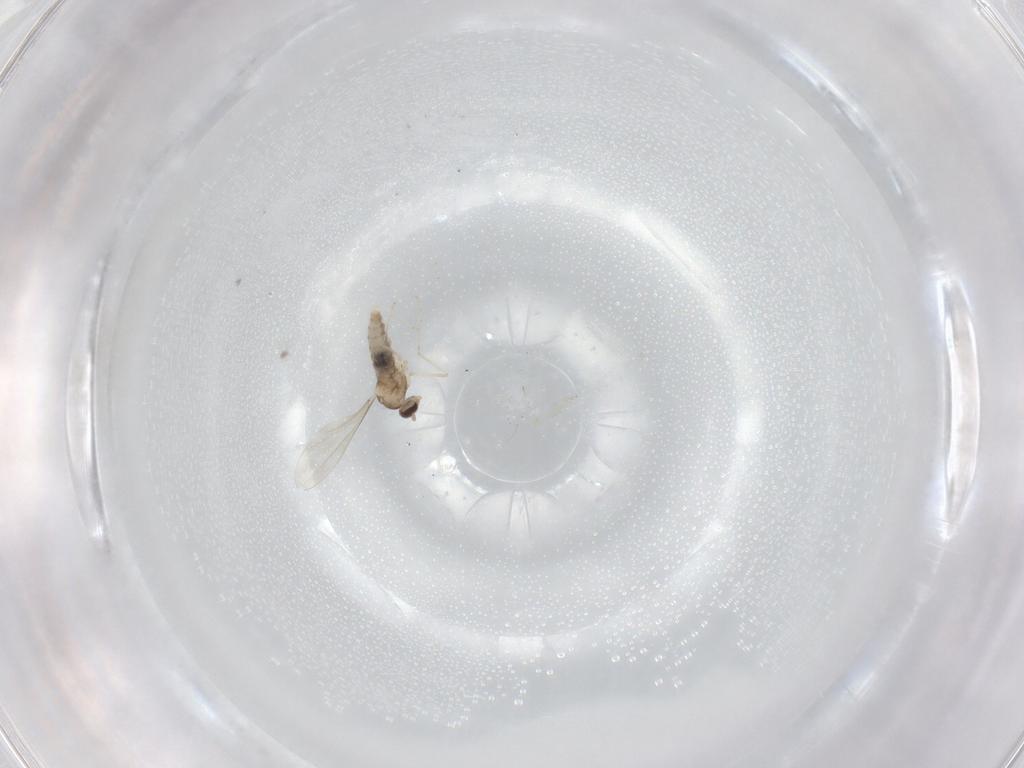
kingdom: Animalia
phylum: Arthropoda
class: Insecta
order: Diptera
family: Cecidomyiidae
